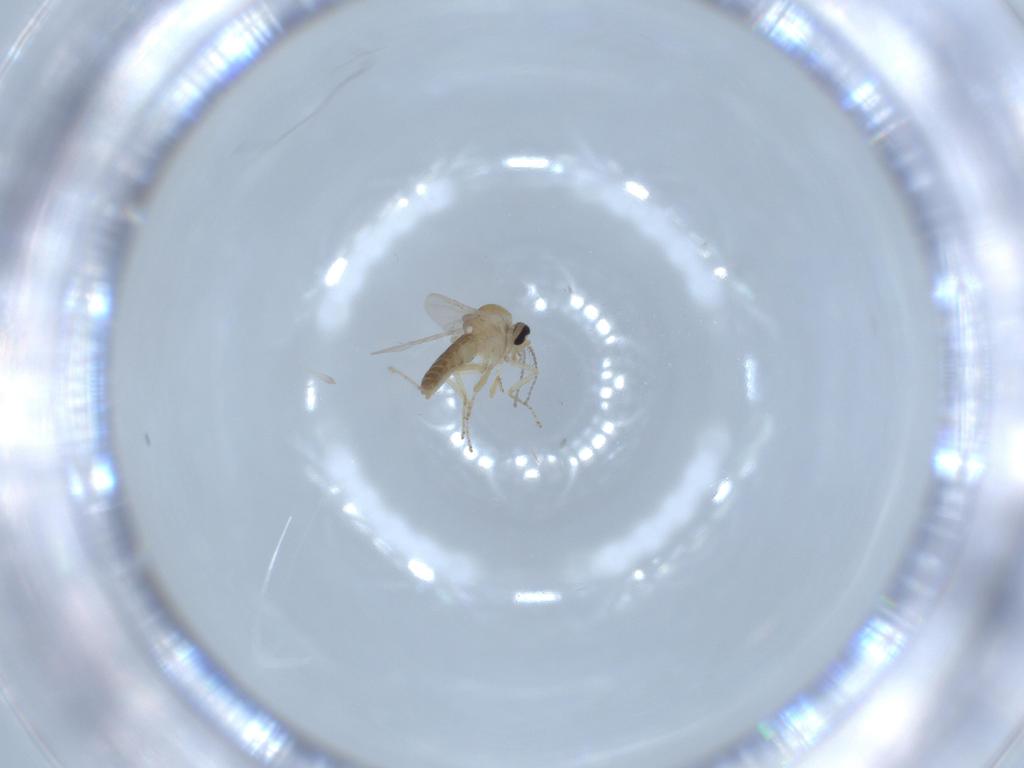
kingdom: Animalia
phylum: Arthropoda
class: Insecta
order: Diptera
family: Ceratopogonidae
